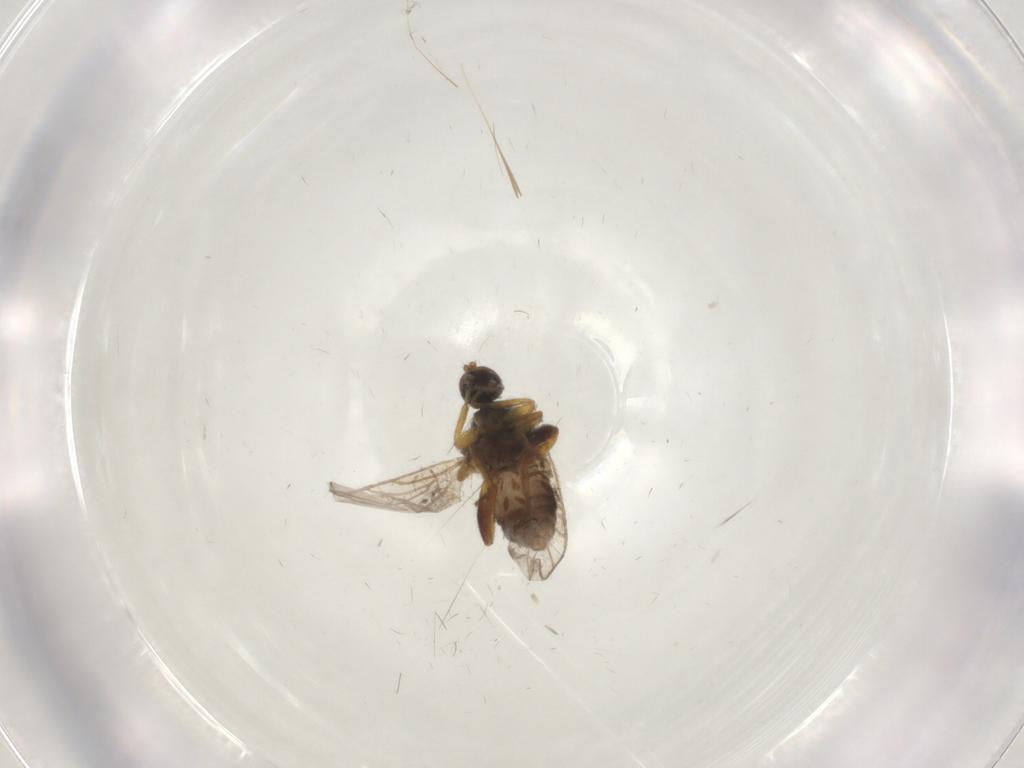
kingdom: Animalia
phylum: Arthropoda
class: Insecta
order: Diptera
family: Hybotidae
